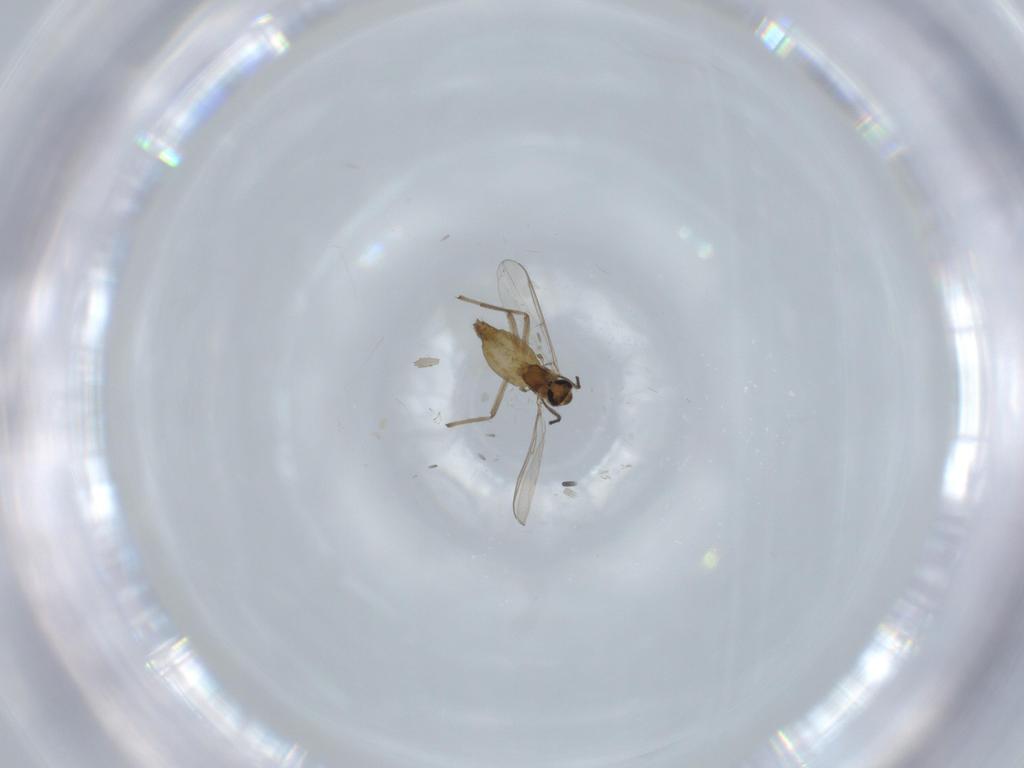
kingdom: Animalia
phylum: Arthropoda
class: Insecta
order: Diptera
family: Chironomidae
